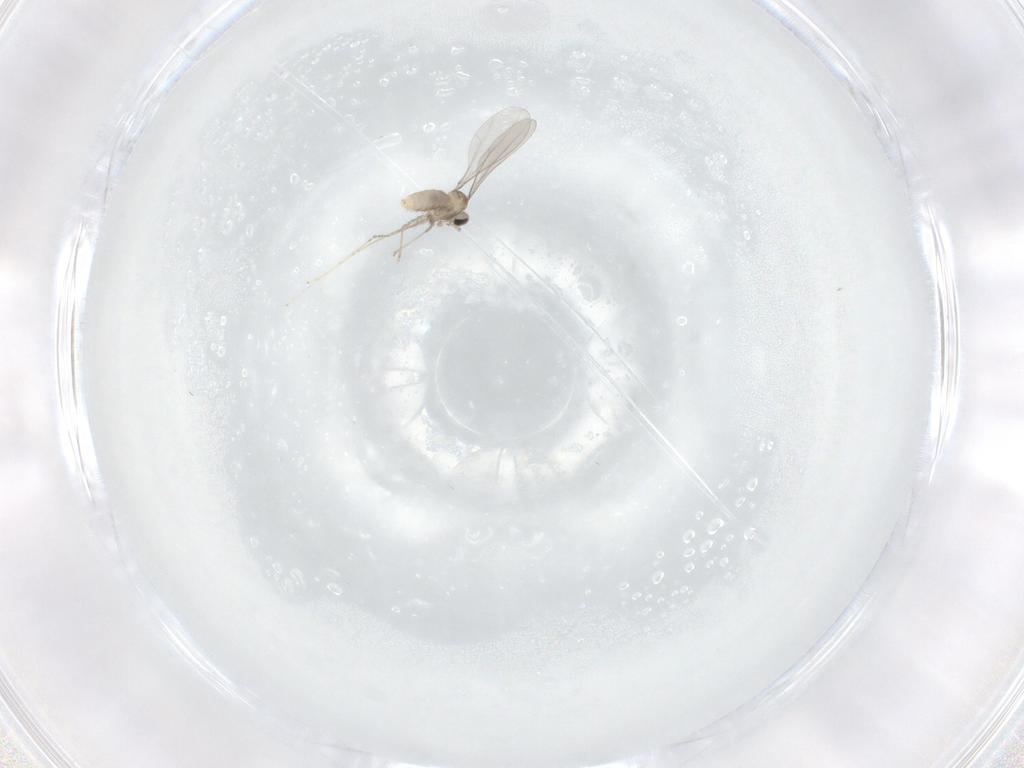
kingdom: Animalia
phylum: Arthropoda
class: Insecta
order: Diptera
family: Cecidomyiidae
